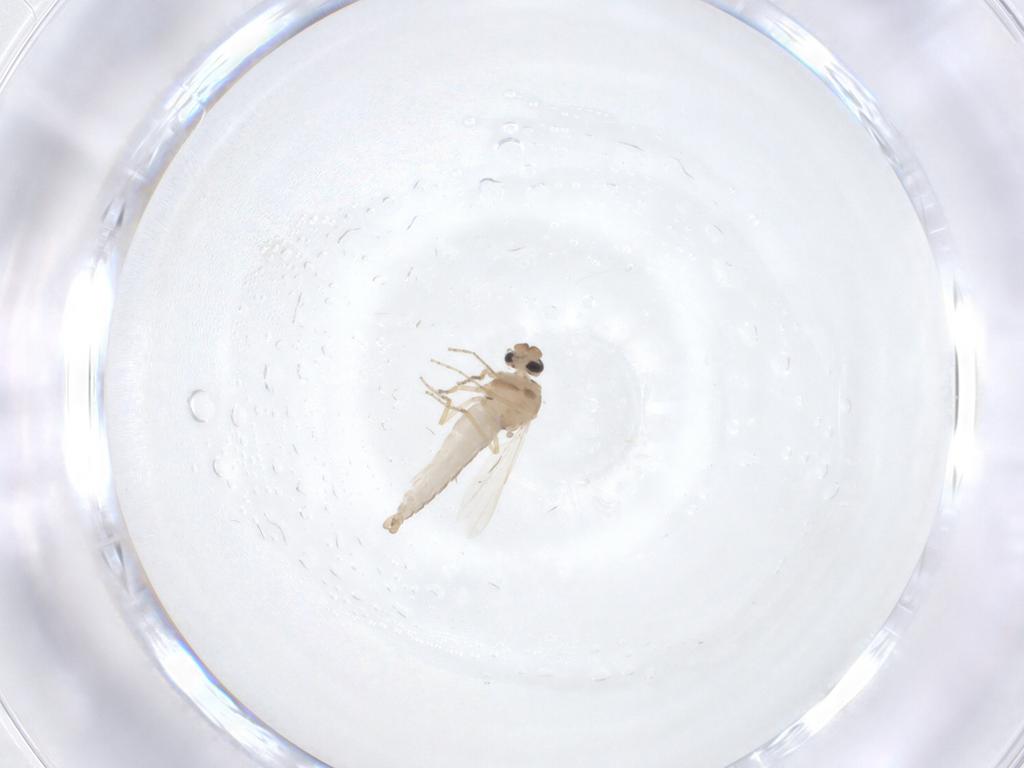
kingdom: Animalia
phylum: Arthropoda
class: Insecta
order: Diptera
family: Ceratopogonidae
